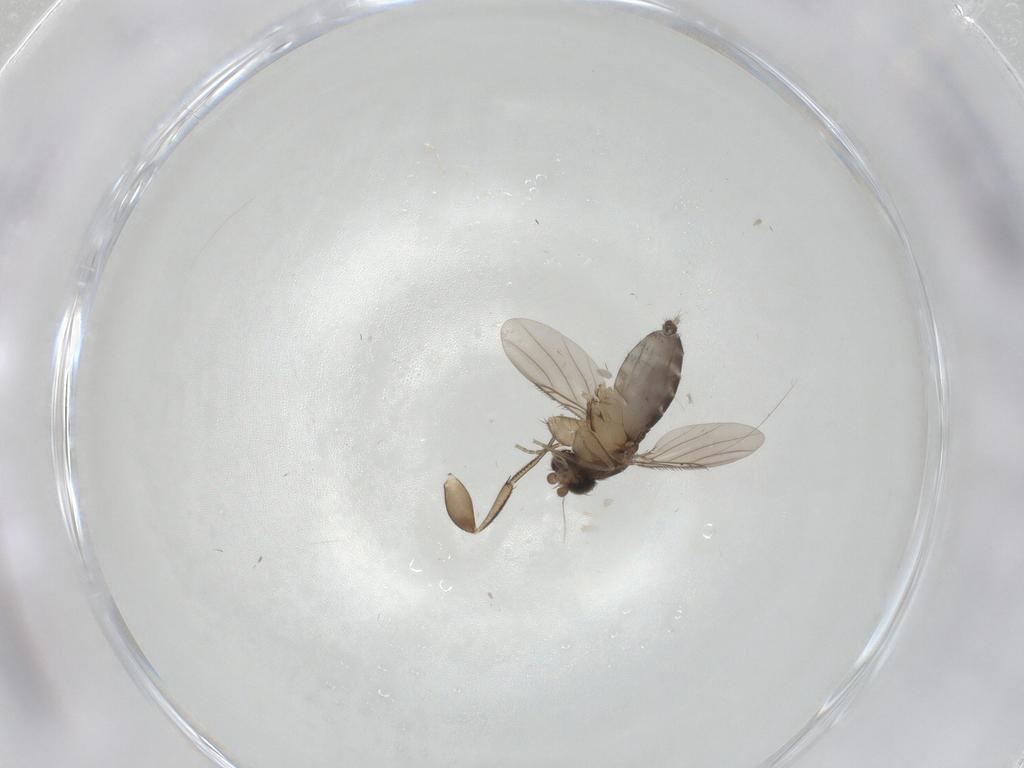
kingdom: Animalia
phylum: Arthropoda
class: Insecta
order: Diptera
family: Phoridae
